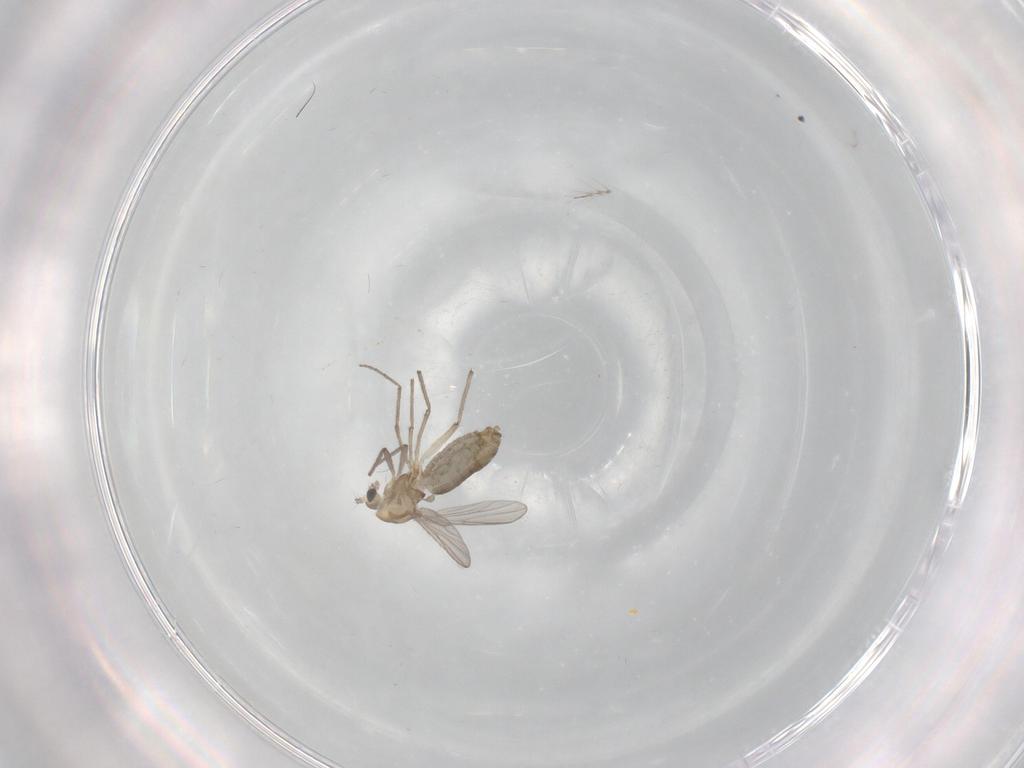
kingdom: Animalia
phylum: Arthropoda
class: Insecta
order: Diptera
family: Chironomidae
